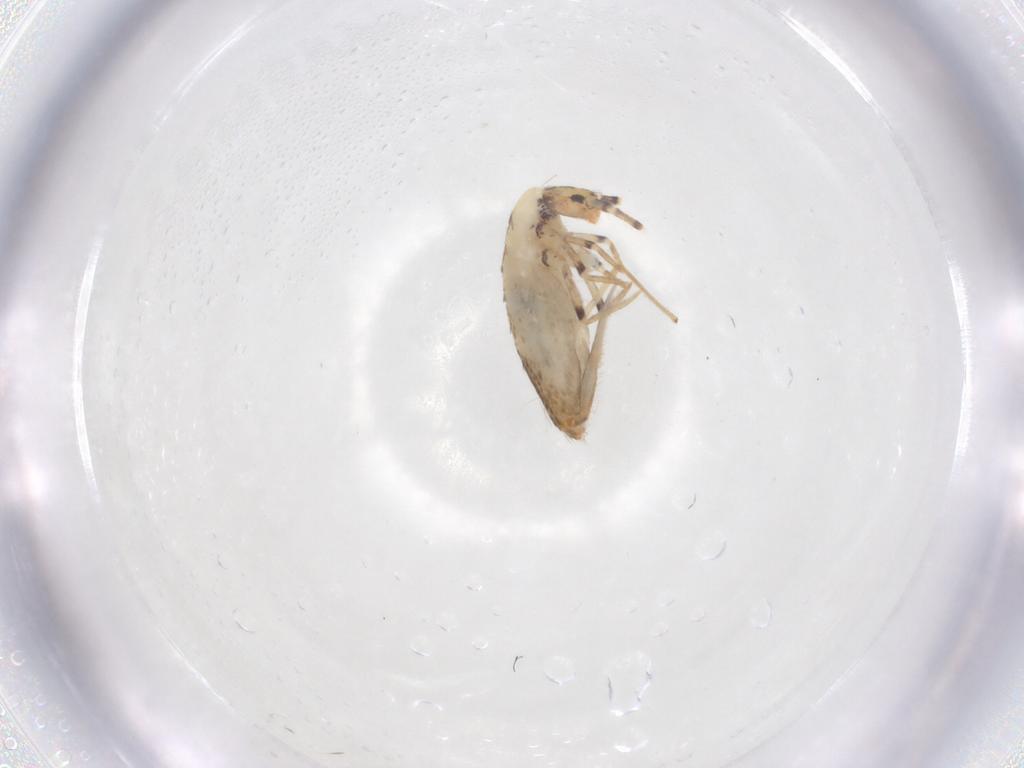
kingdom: Animalia
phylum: Arthropoda
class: Collembola
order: Entomobryomorpha
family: Entomobryidae
